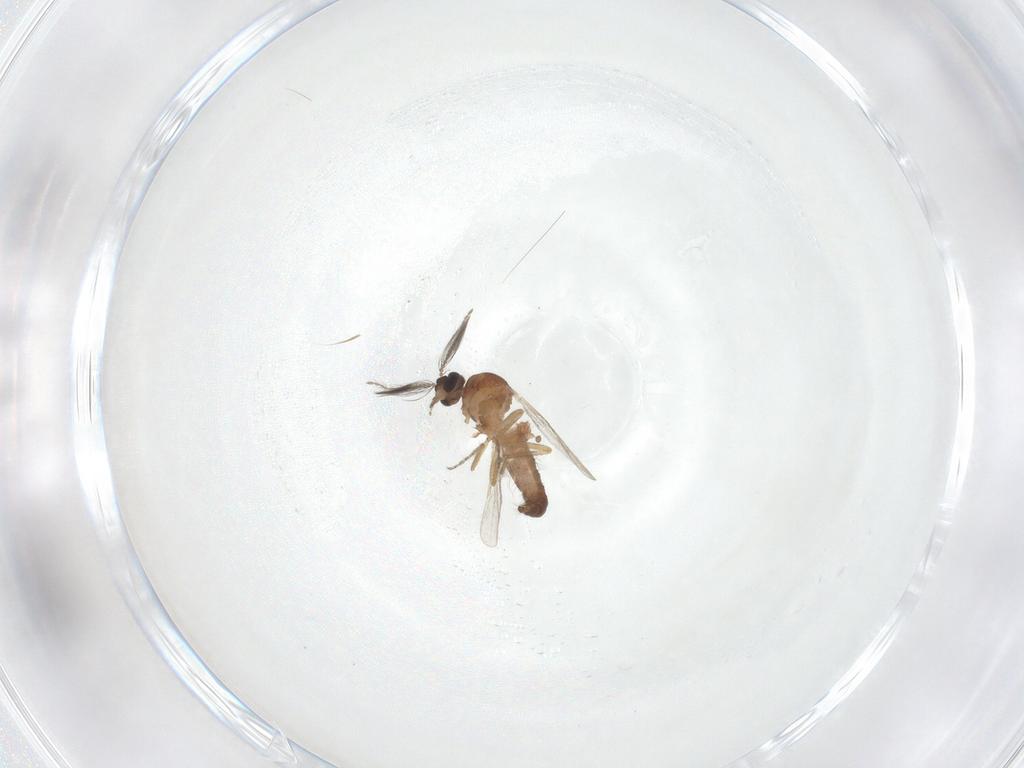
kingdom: Animalia
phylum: Arthropoda
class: Insecta
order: Diptera
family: Ceratopogonidae
